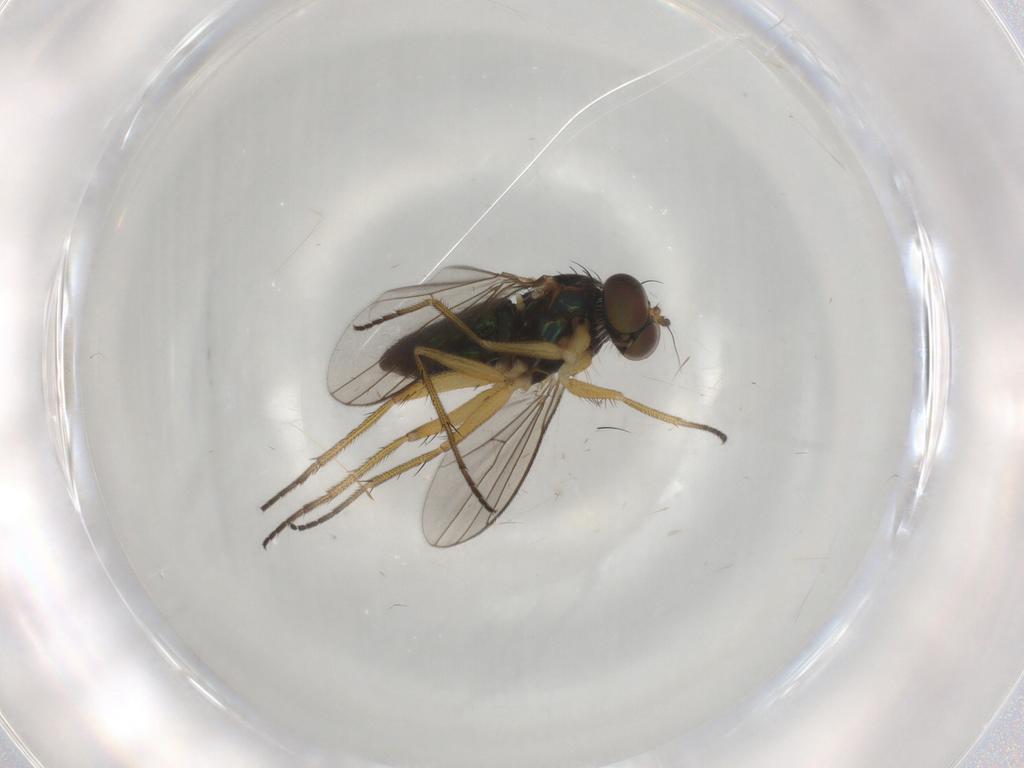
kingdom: Animalia
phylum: Arthropoda
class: Insecta
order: Diptera
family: Dolichopodidae
